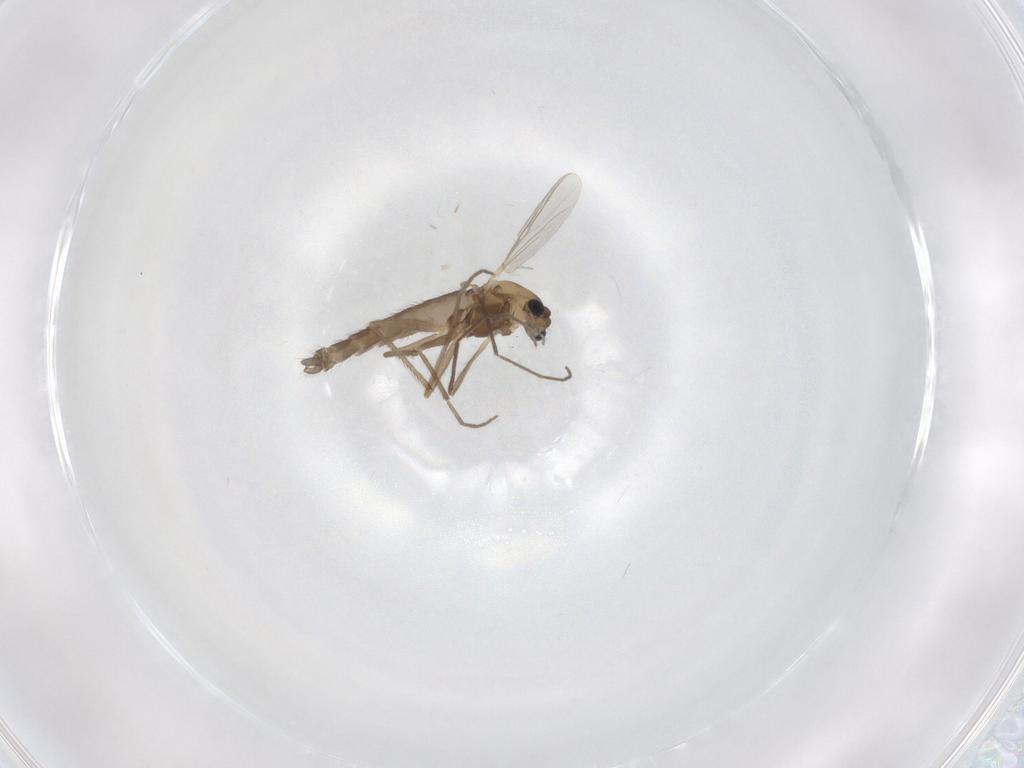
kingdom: Animalia
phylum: Arthropoda
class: Insecta
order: Diptera
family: Chironomidae
